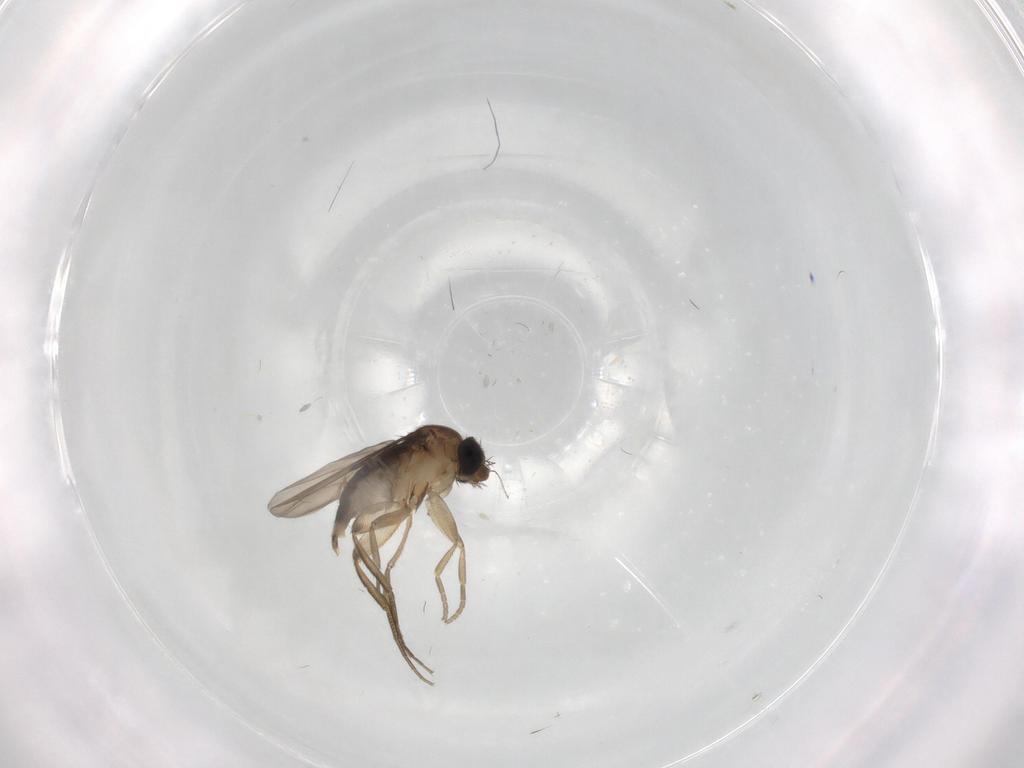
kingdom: Animalia
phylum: Arthropoda
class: Insecta
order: Diptera
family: Phoridae
